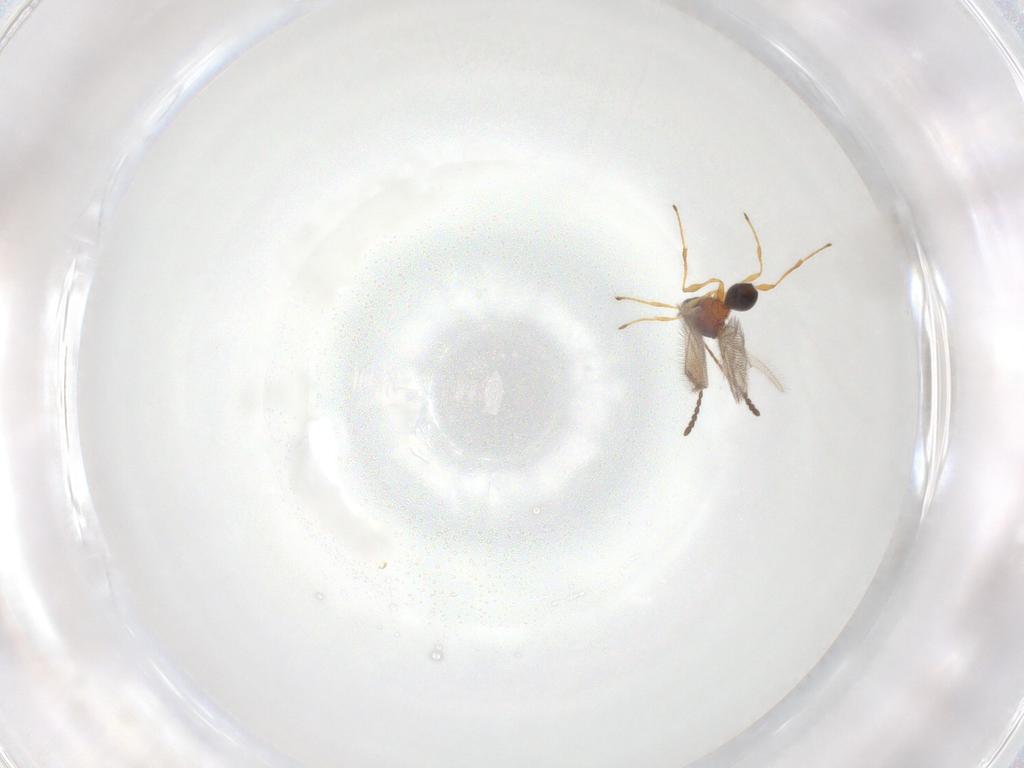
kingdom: Animalia
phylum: Arthropoda
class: Insecta
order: Hymenoptera
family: Diapriidae
